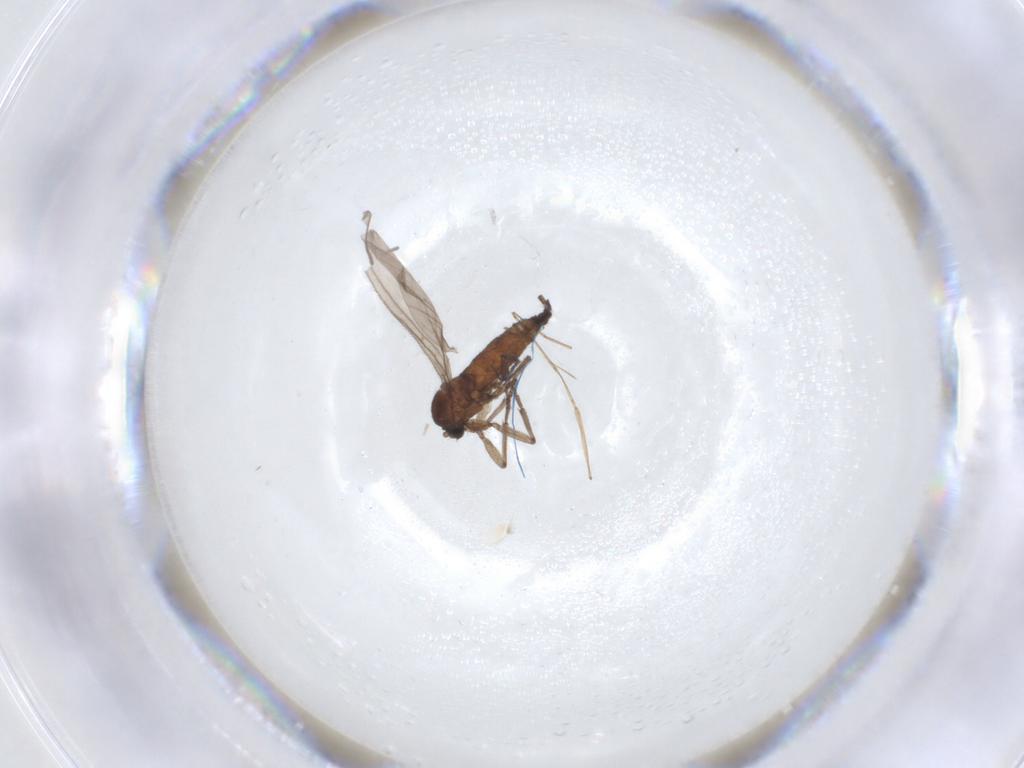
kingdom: Animalia
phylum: Arthropoda
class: Insecta
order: Diptera
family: Sciaridae
